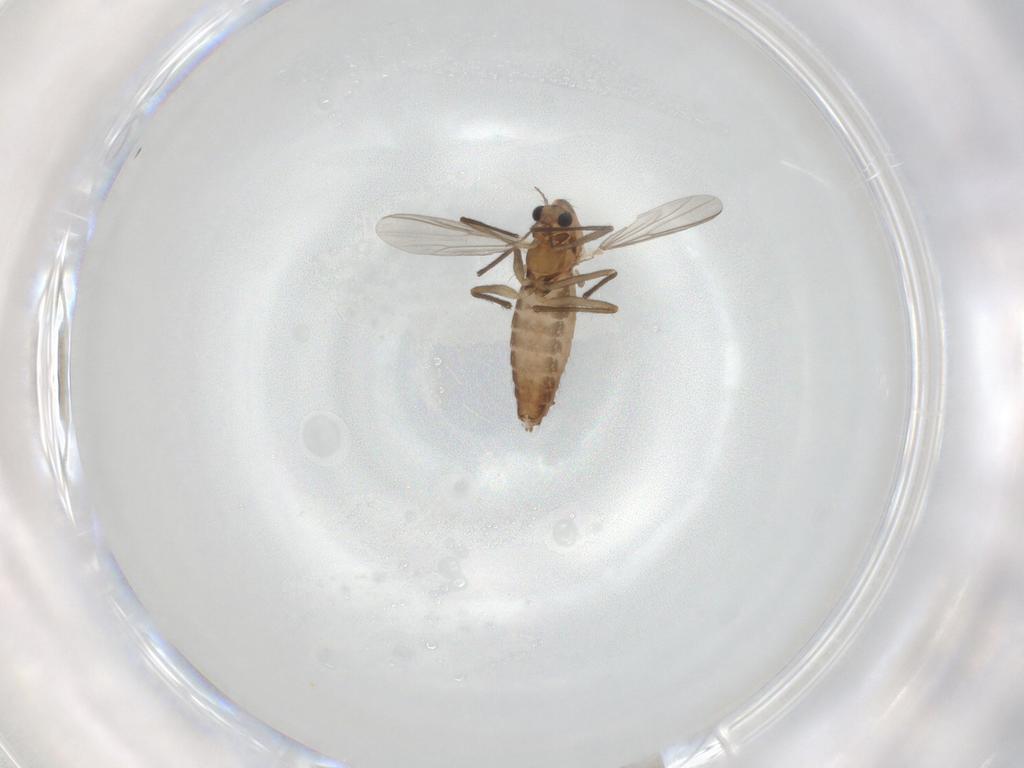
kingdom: Animalia
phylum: Arthropoda
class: Insecta
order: Diptera
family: Chironomidae
